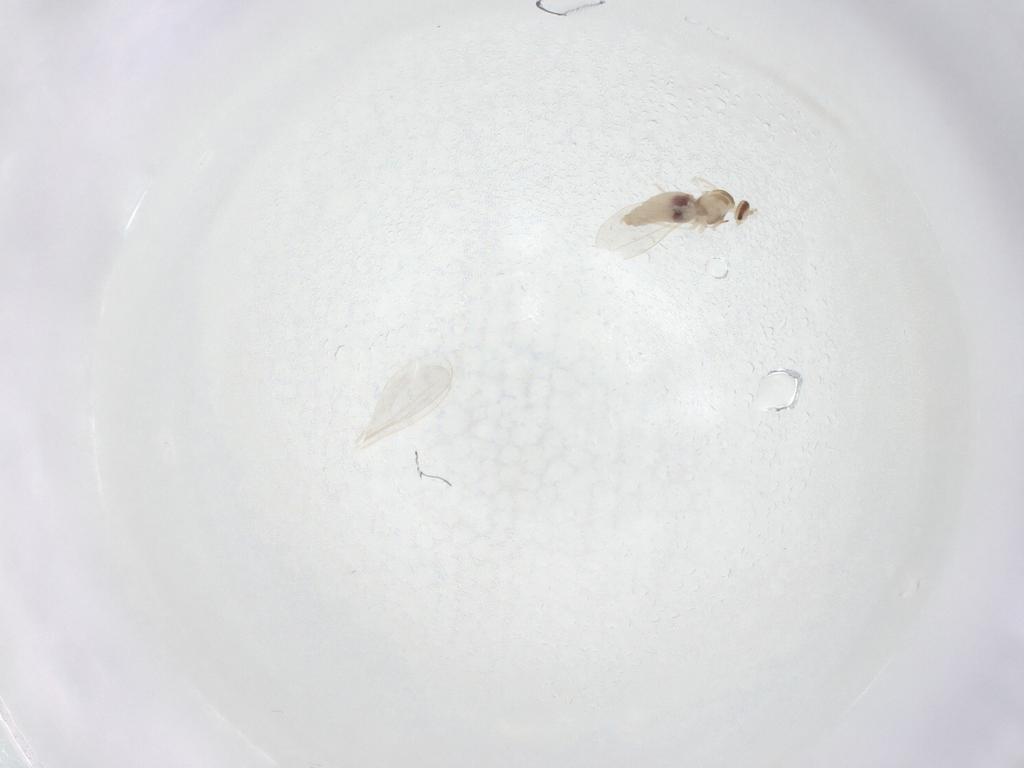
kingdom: Animalia
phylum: Arthropoda
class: Insecta
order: Diptera
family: Cecidomyiidae
